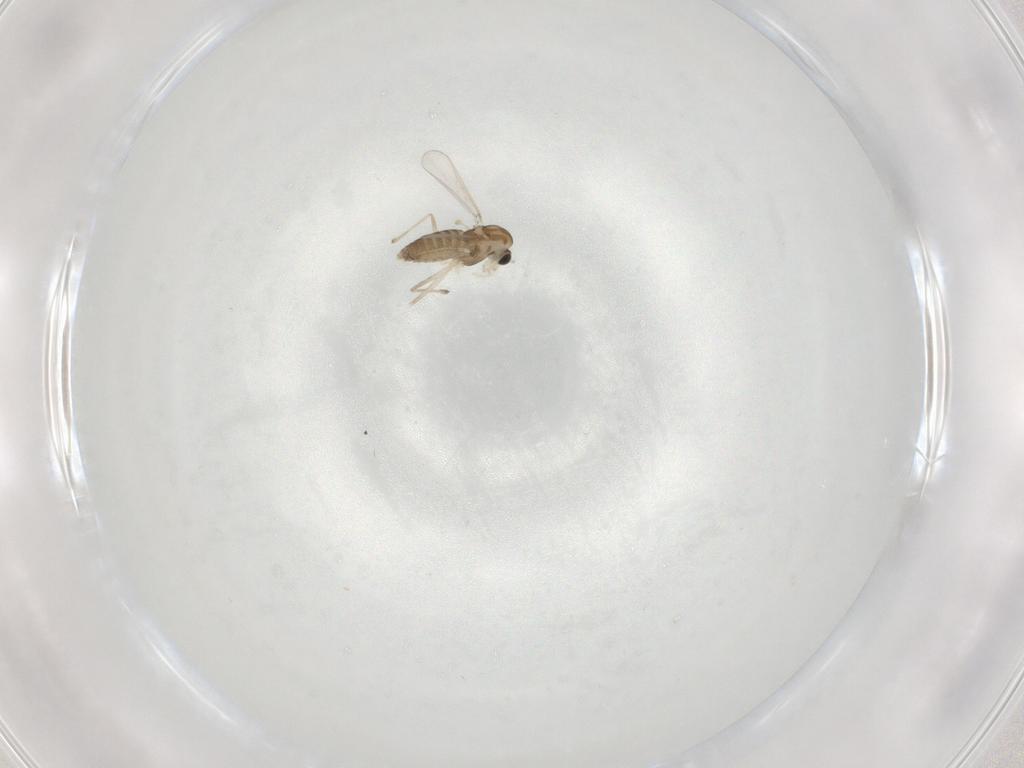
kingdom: Animalia
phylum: Arthropoda
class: Insecta
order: Diptera
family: Chironomidae
